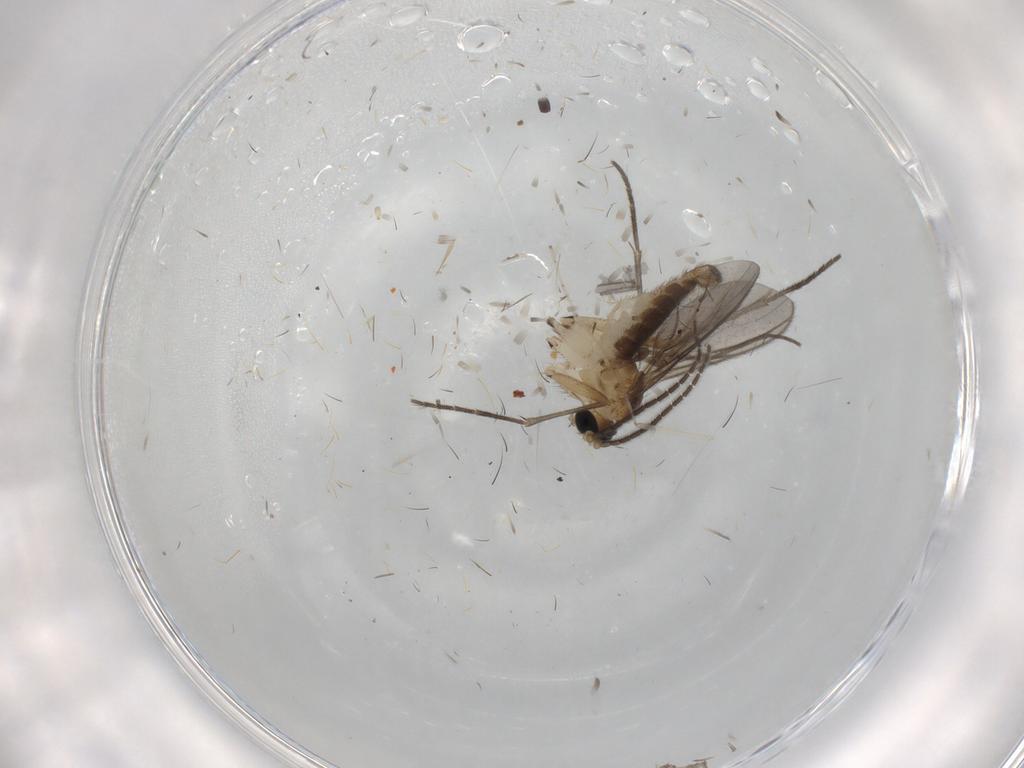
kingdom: Animalia
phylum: Arthropoda
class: Insecta
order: Diptera
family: Sciaridae
